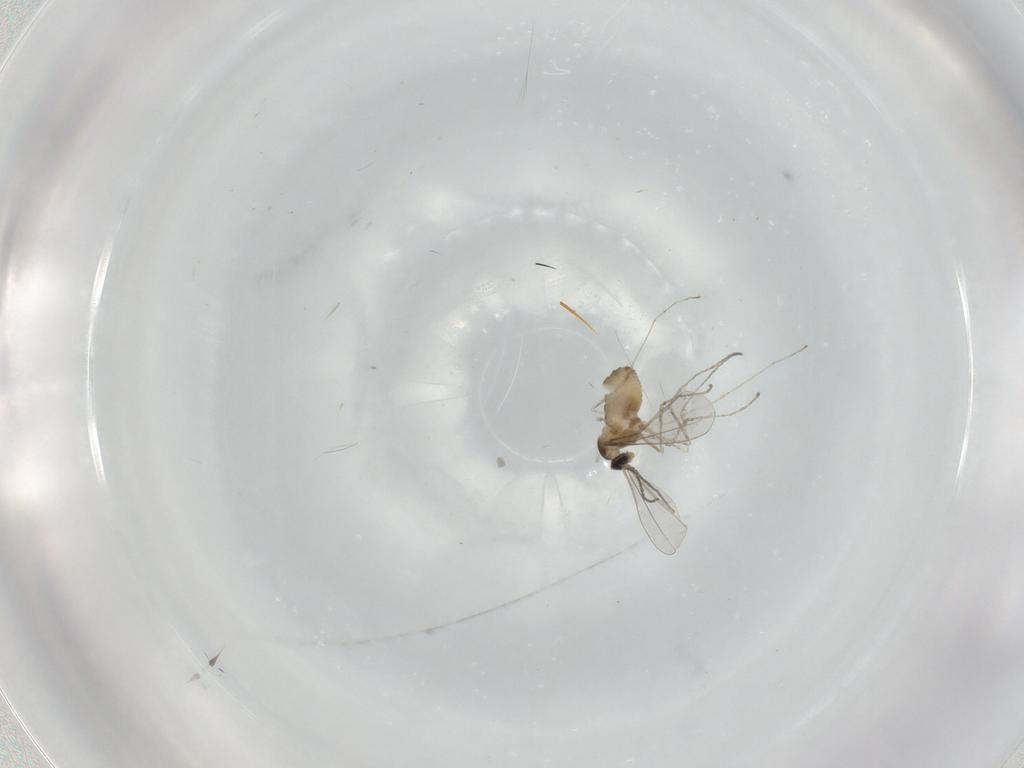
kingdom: Animalia
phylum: Arthropoda
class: Insecta
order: Diptera
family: Cecidomyiidae
